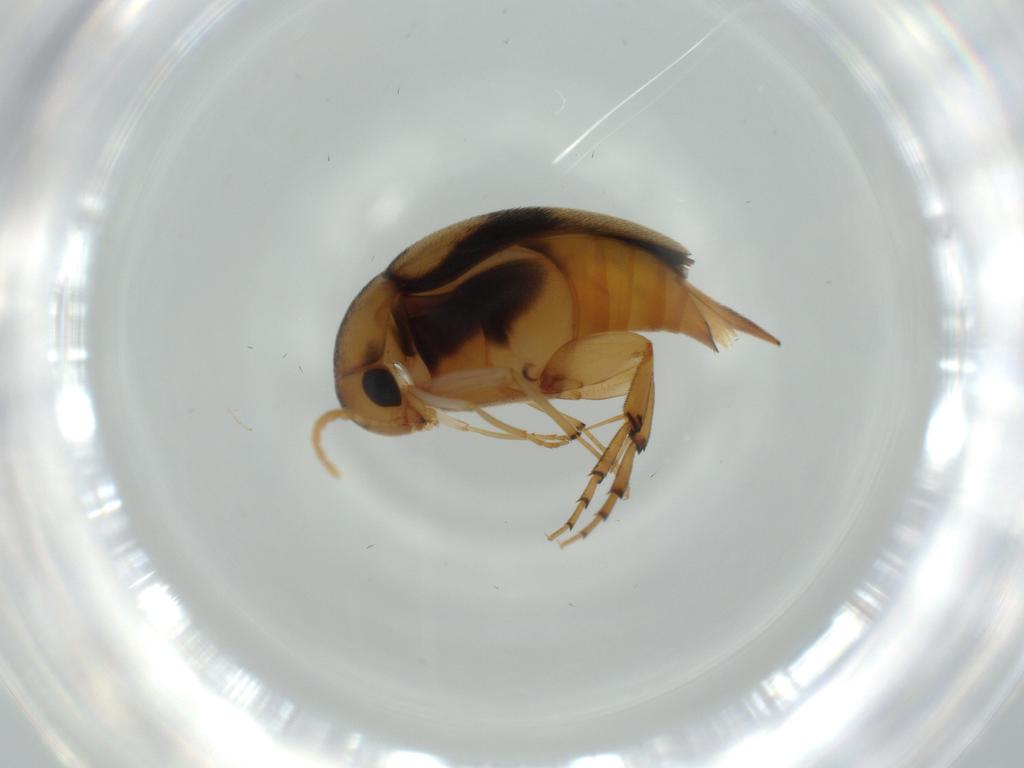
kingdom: Animalia
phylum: Arthropoda
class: Insecta
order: Coleoptera
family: Mordellidae
